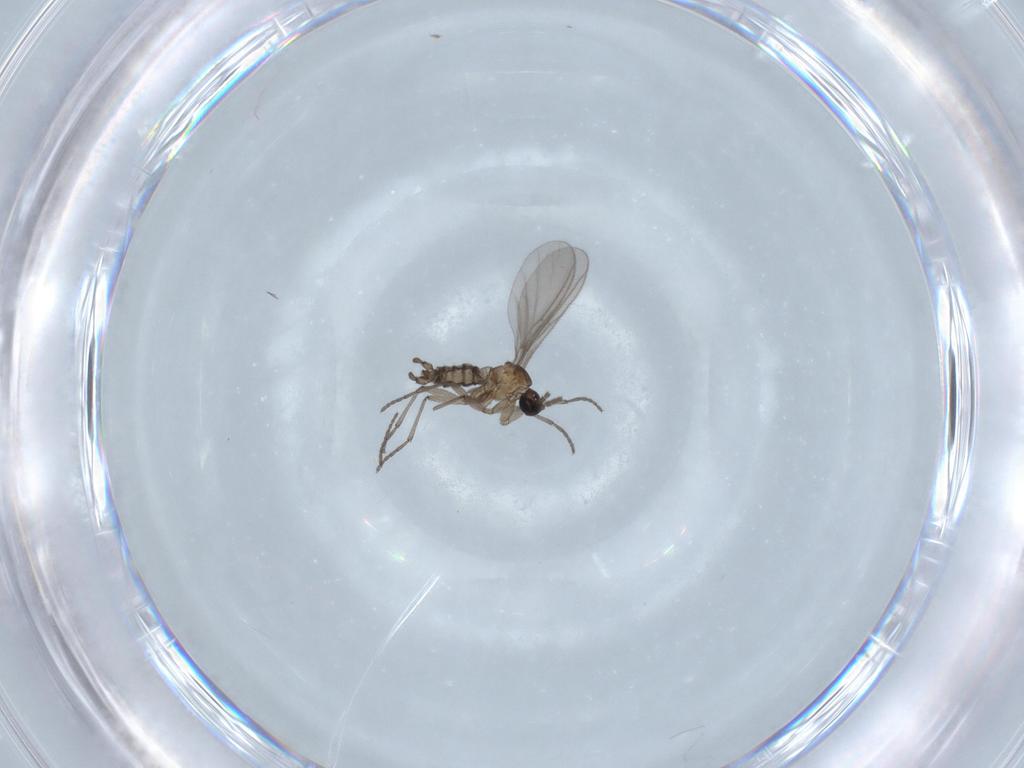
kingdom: Animalia
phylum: Arthropoda
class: Insecta
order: Diptera
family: Sciaridae
